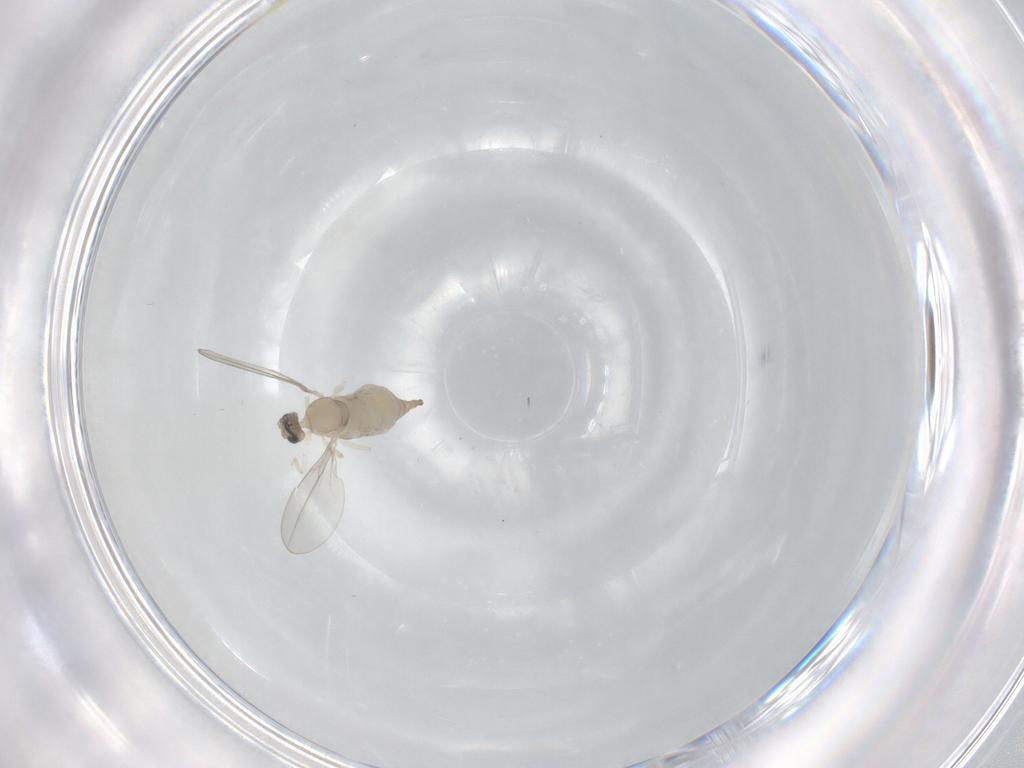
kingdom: Animalia
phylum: Arthropoda
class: Insecta
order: Diptera
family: Cecidomyiidae
